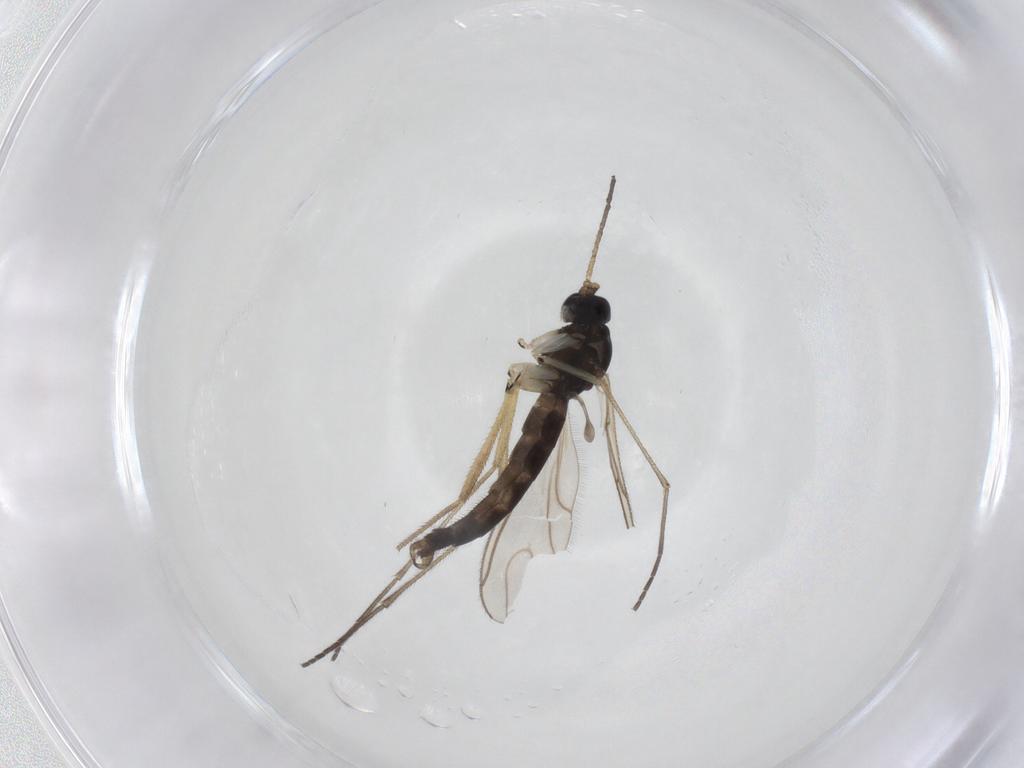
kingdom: Animalia
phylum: Arthropoda
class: Insecta
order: Diptera
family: Sciaridae
